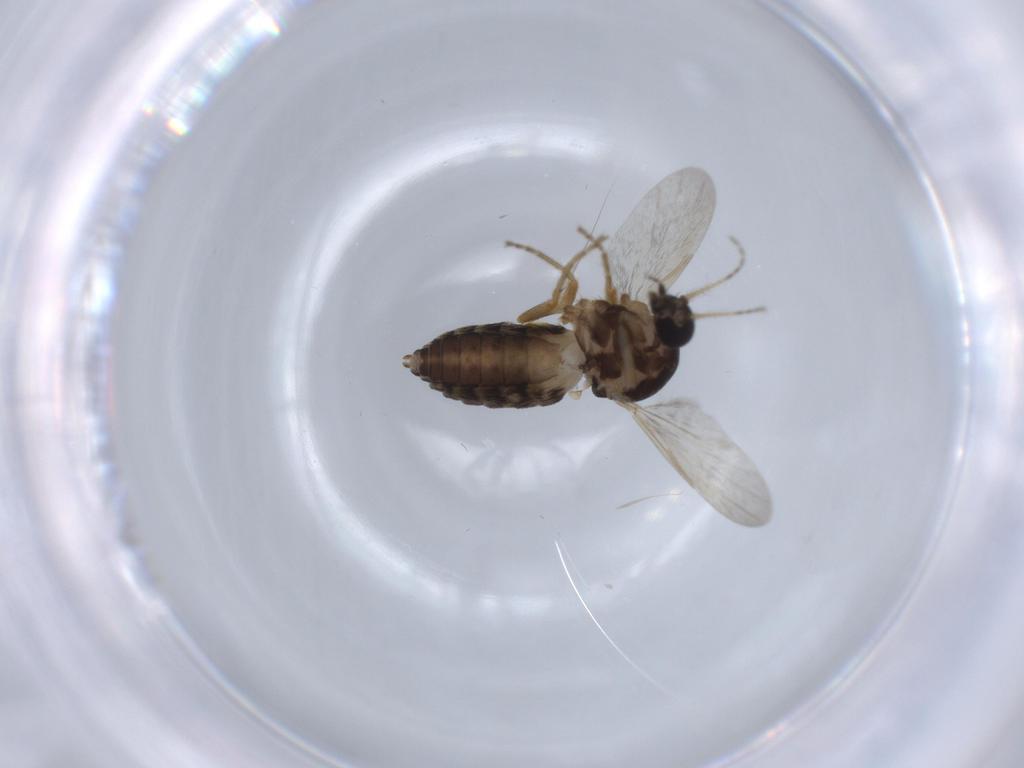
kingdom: Animalia
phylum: Arthropoda
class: Insecta
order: Diptera
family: Sciaridae
